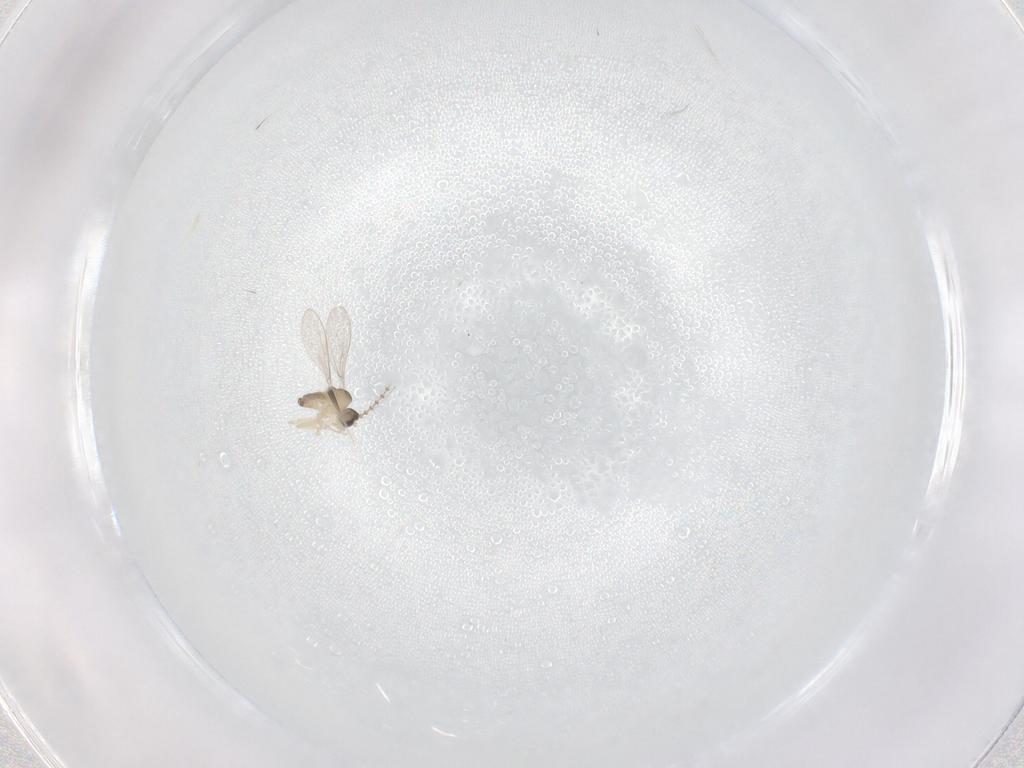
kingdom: Animalia
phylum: Arthropoda
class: Insecta
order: Diptera
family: Cecidomyiidae
